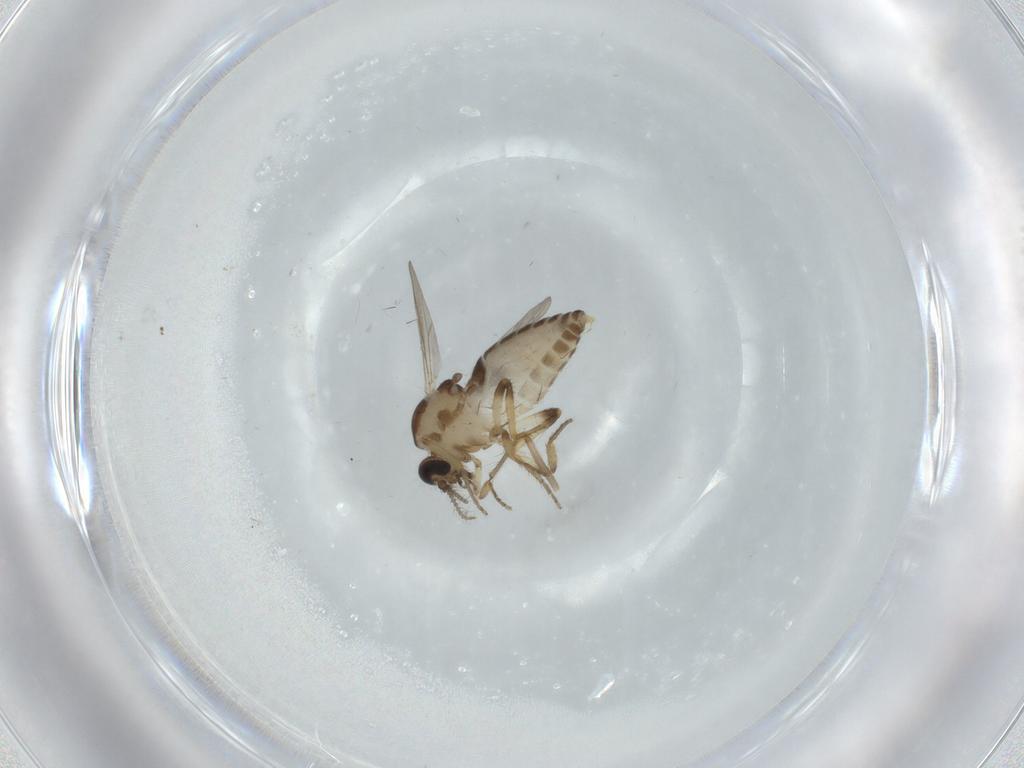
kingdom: Animalia
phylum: Arthropoda
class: Insecta
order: Diptera
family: Ceratopogonidae
